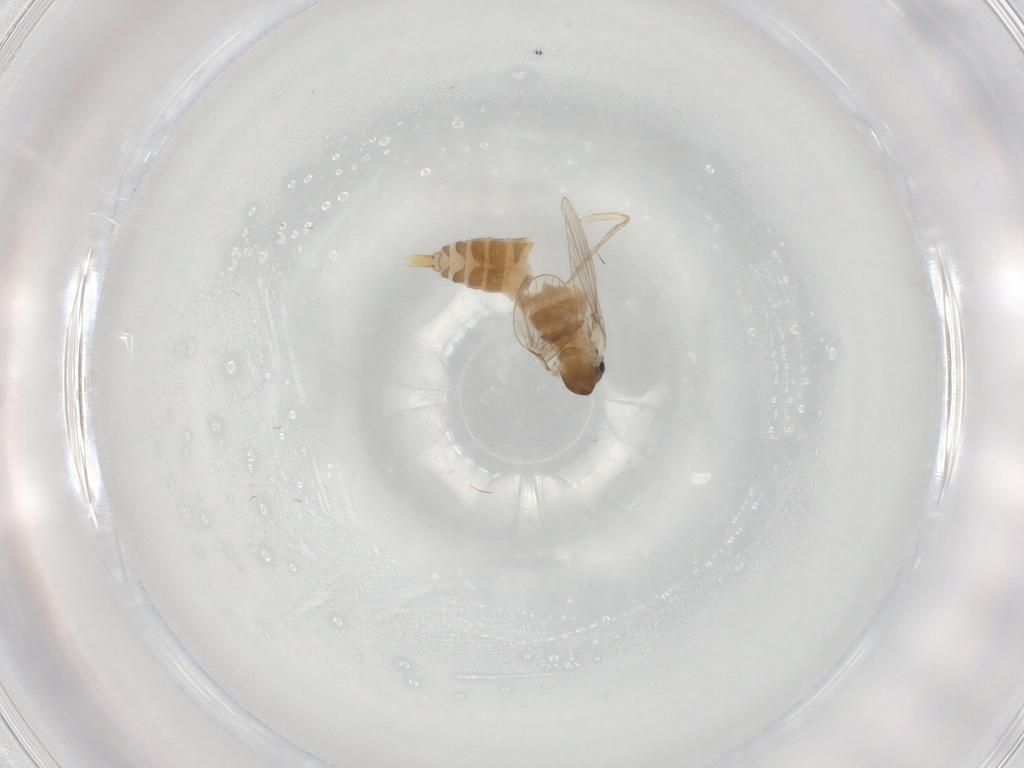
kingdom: Animalia
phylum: Arthropoda
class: Insecta
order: Diptera
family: Psychodidae
